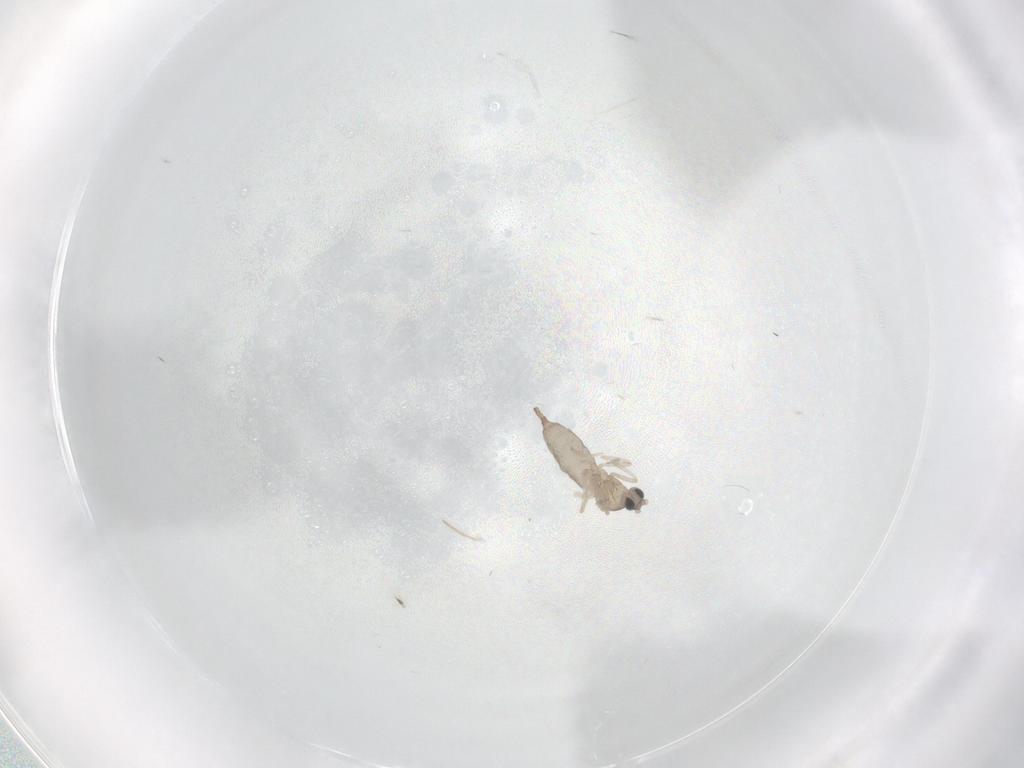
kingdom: Animalia
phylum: Arthropoda
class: Insecta
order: Diptera
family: Cecidomyiidae
